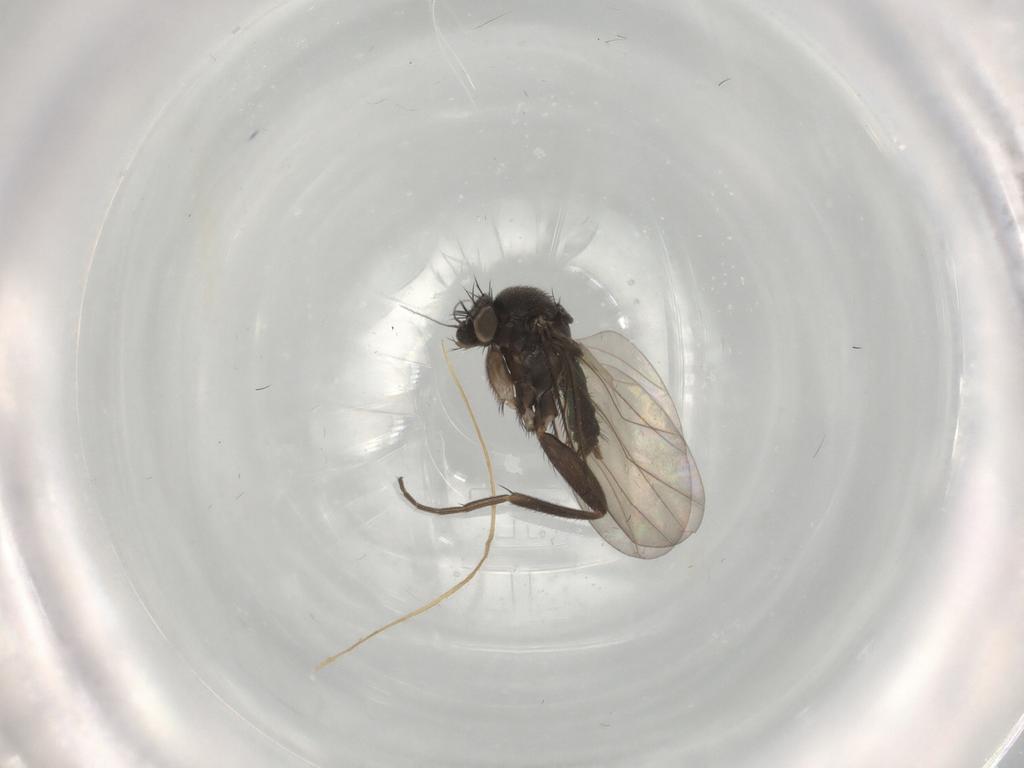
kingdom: Animalia
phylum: Arthropoda
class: Insecta
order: Diptera
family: Phoridae
